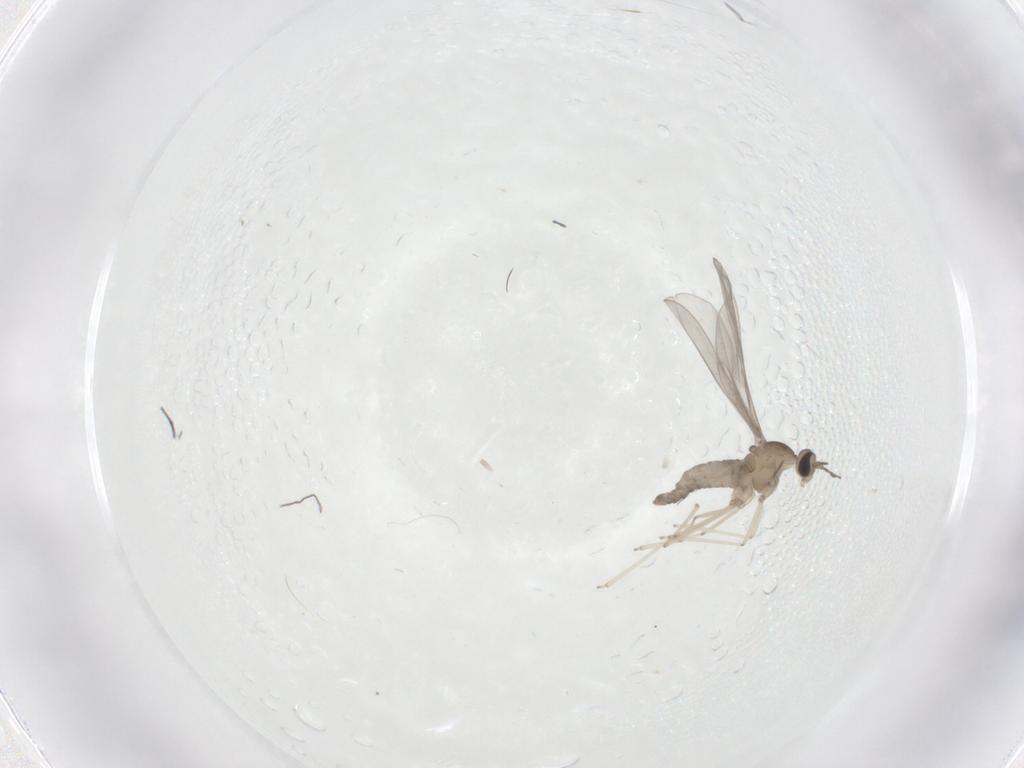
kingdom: Animalia
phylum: Arthropoda
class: Insecta
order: Diptera
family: Cecidomyiidae
